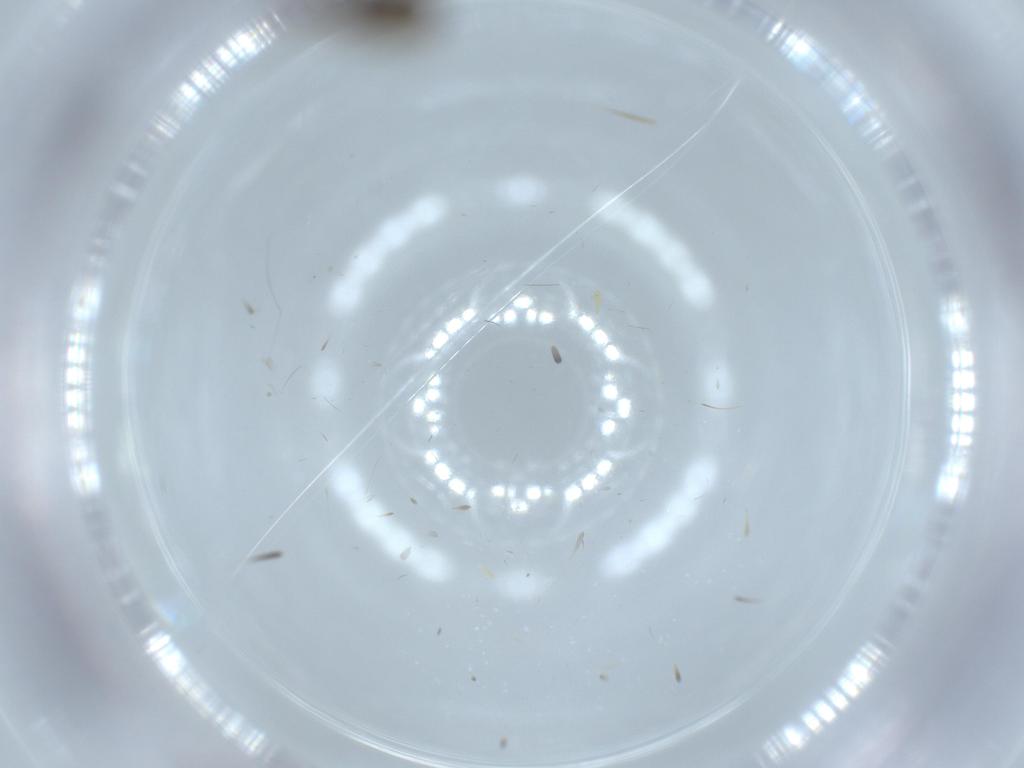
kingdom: Animalia
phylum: Arthropoda
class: Insecta
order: Diptera
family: Chironomidae
